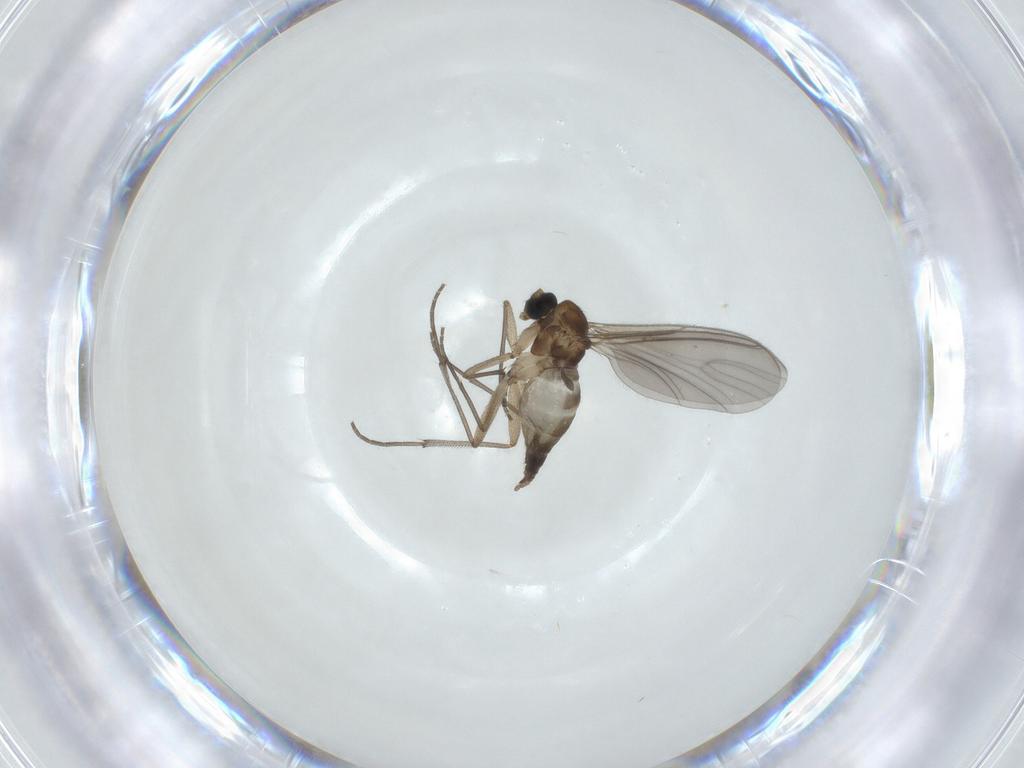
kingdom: Animalia
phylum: Arthropoda
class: Insecta
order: Diptera
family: Sciaridae
